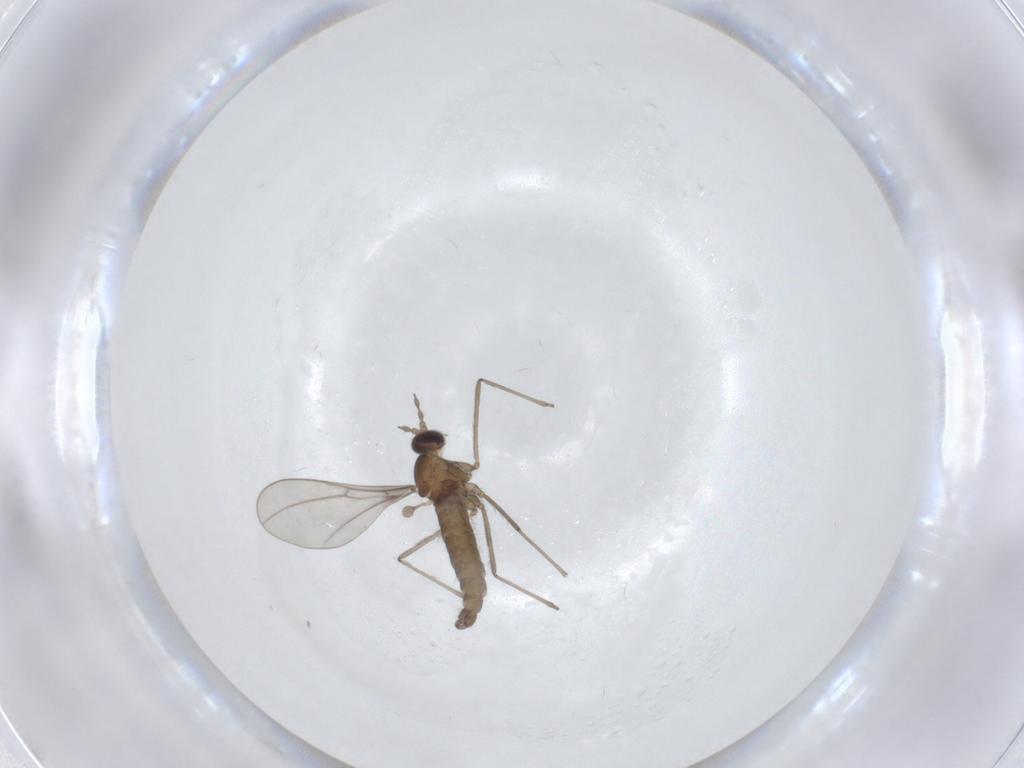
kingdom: Animalia
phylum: Arthropoda
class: Insecta
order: Diptera
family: Cecidomyiidae
